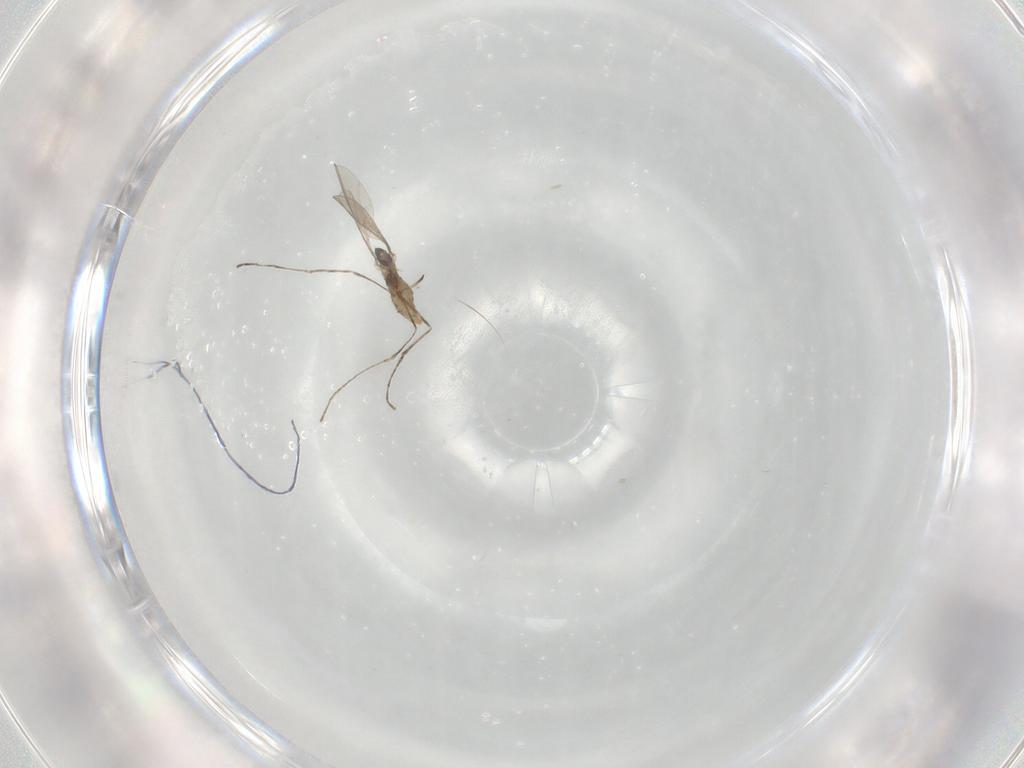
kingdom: Animalia
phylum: Arthropoda
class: Insecta
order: Diptera
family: Cecidomyiidae
